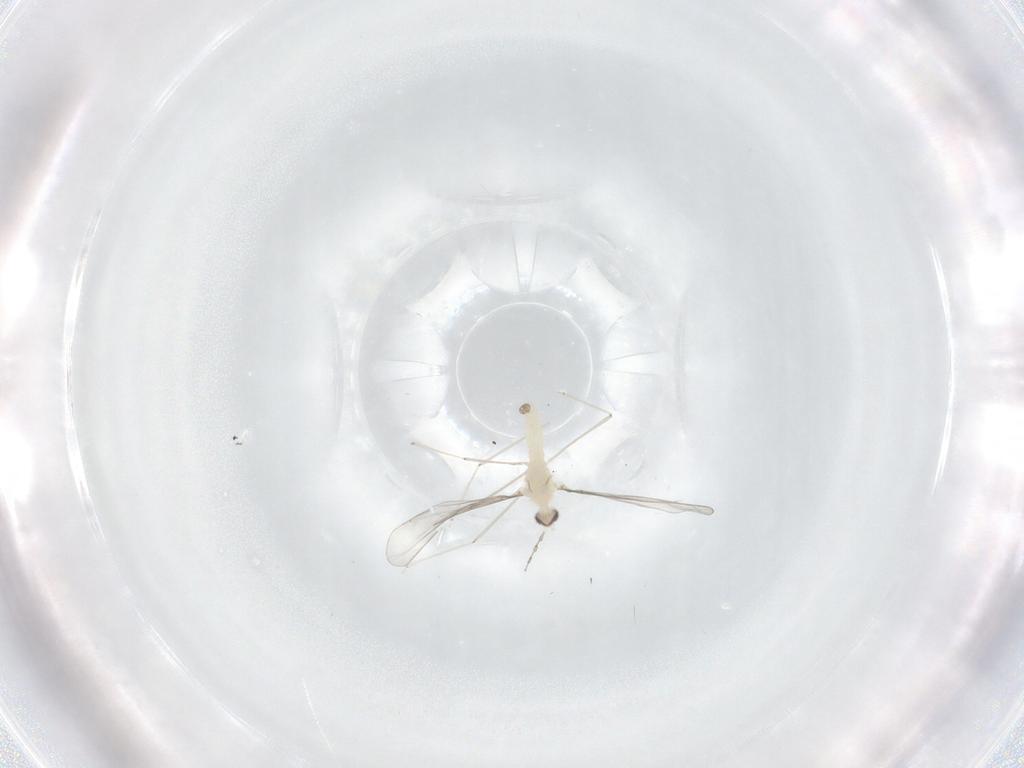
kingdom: Animalia
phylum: Arthropoda
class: Insecta
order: Diptera
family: Cecidomyiidae
